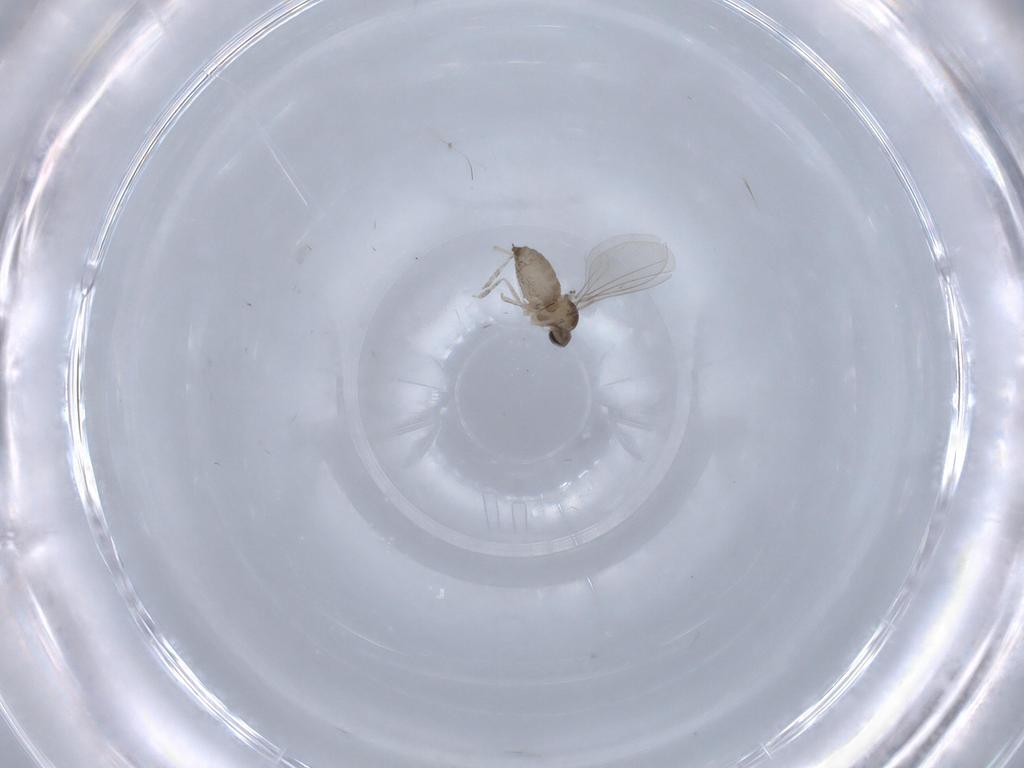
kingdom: Animalia
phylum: Arthropoda
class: Insecta
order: Diptera
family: Cecidomyiidae
